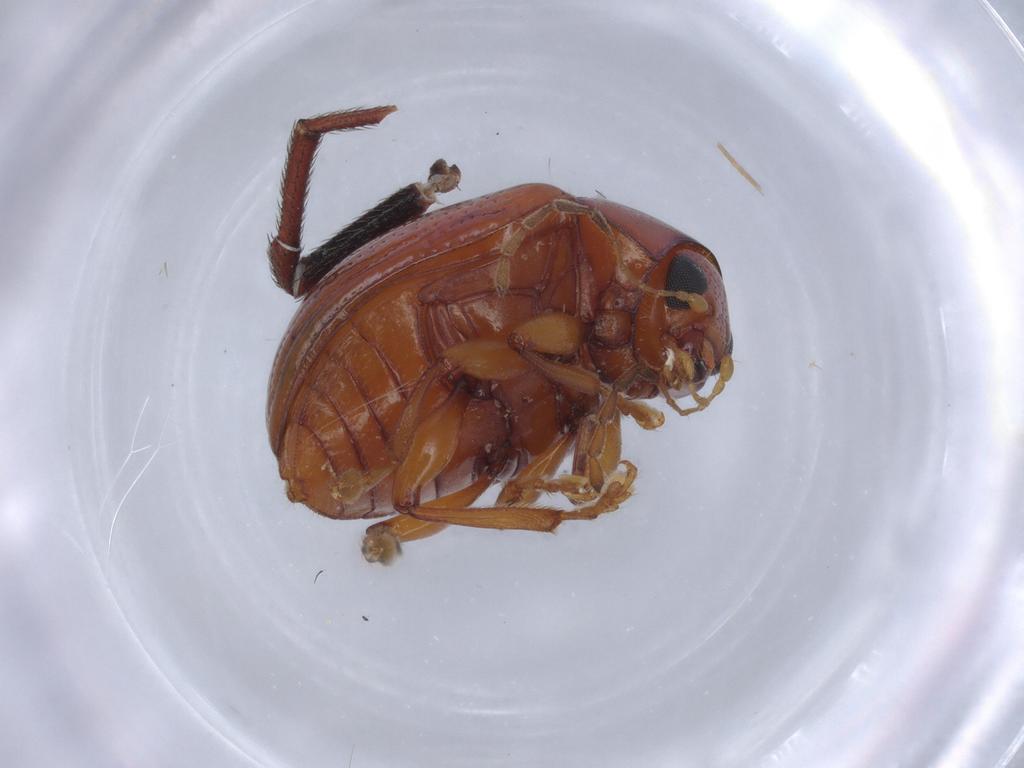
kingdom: Animalia
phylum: Arthropoda
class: Insecta
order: Coleoptera
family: Chrysomelidae
